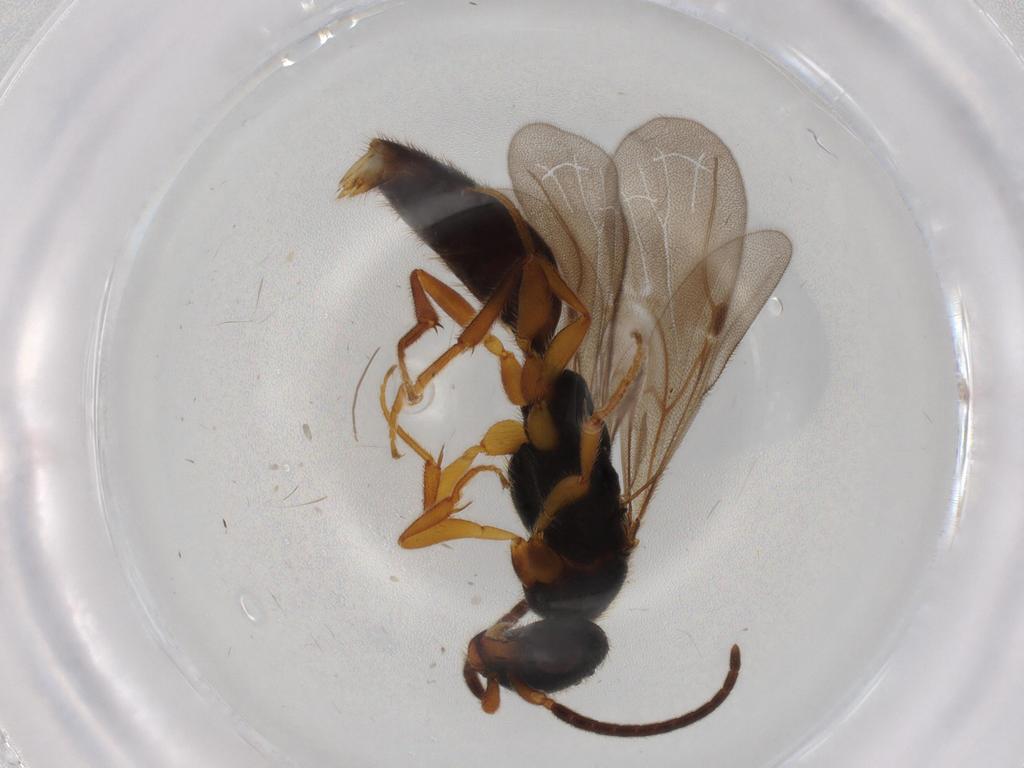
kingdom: Animalia
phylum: Arthropoda
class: Insecta
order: Hymenoptera
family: Bethylidae
